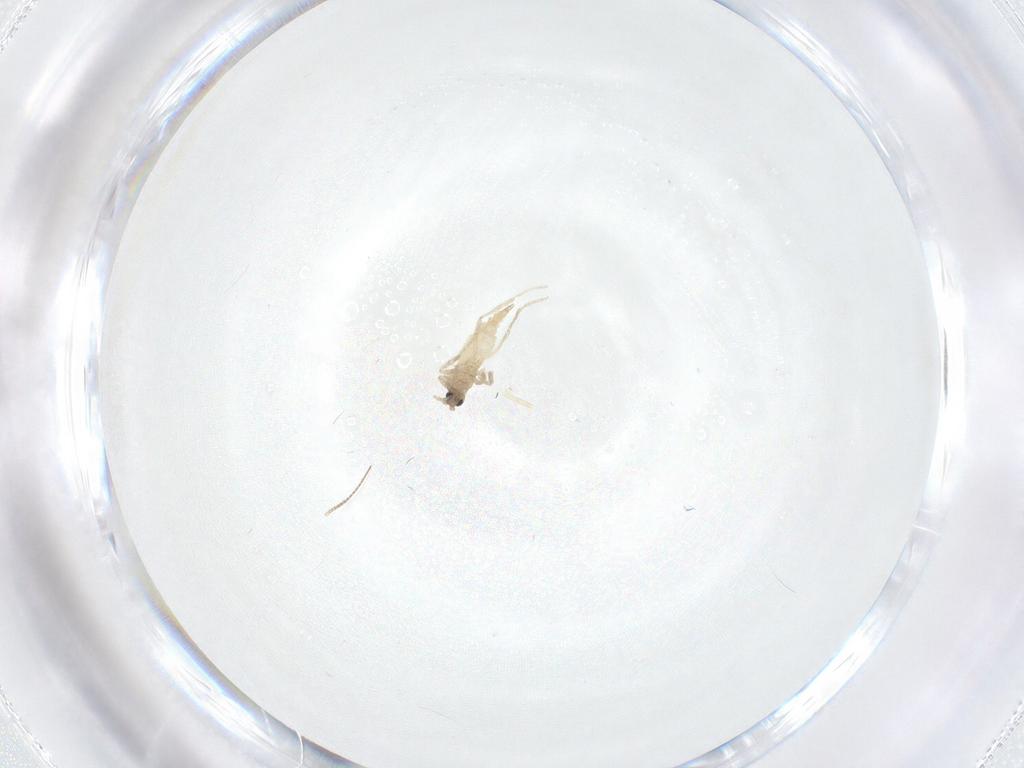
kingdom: Animalia
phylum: Arthropoda
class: Insecta
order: Diptera
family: Cecidomyiidae
